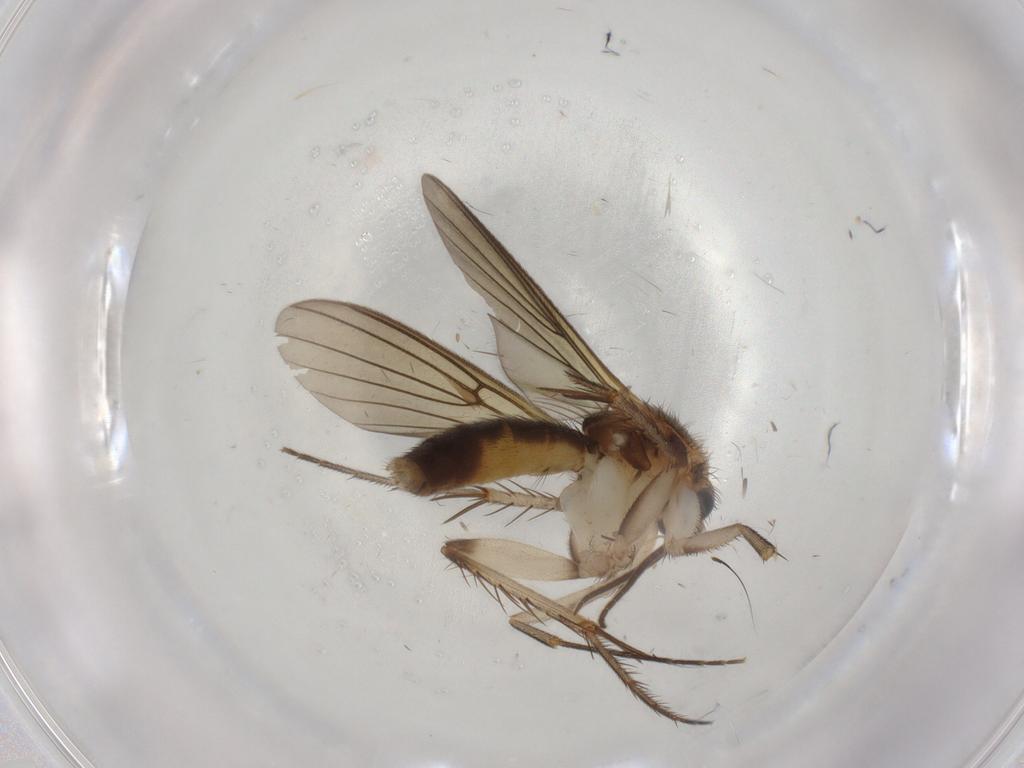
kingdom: Animalia
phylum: Arthropoda
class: Insecta
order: Diptera
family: Mycetophilidae
